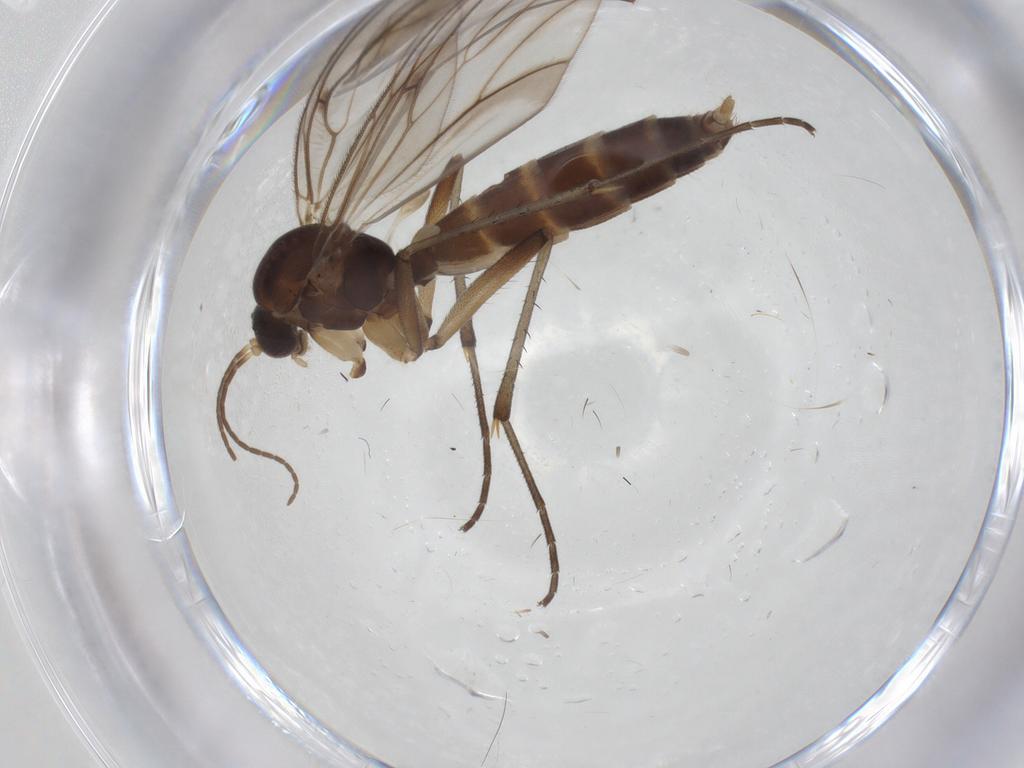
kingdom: Animalia
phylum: Arthropoda
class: Insecta
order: Diptera
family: Mycetophilidae
